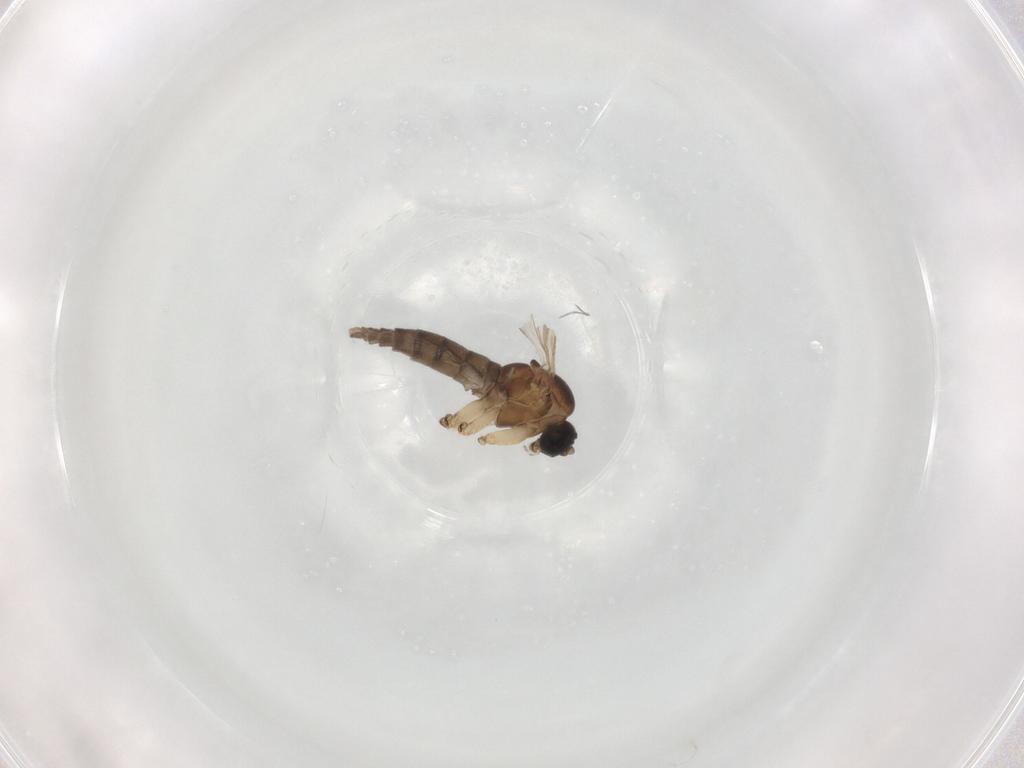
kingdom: Animalia
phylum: Arthropoda
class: Insecta
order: Diptera
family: Sciaridae
